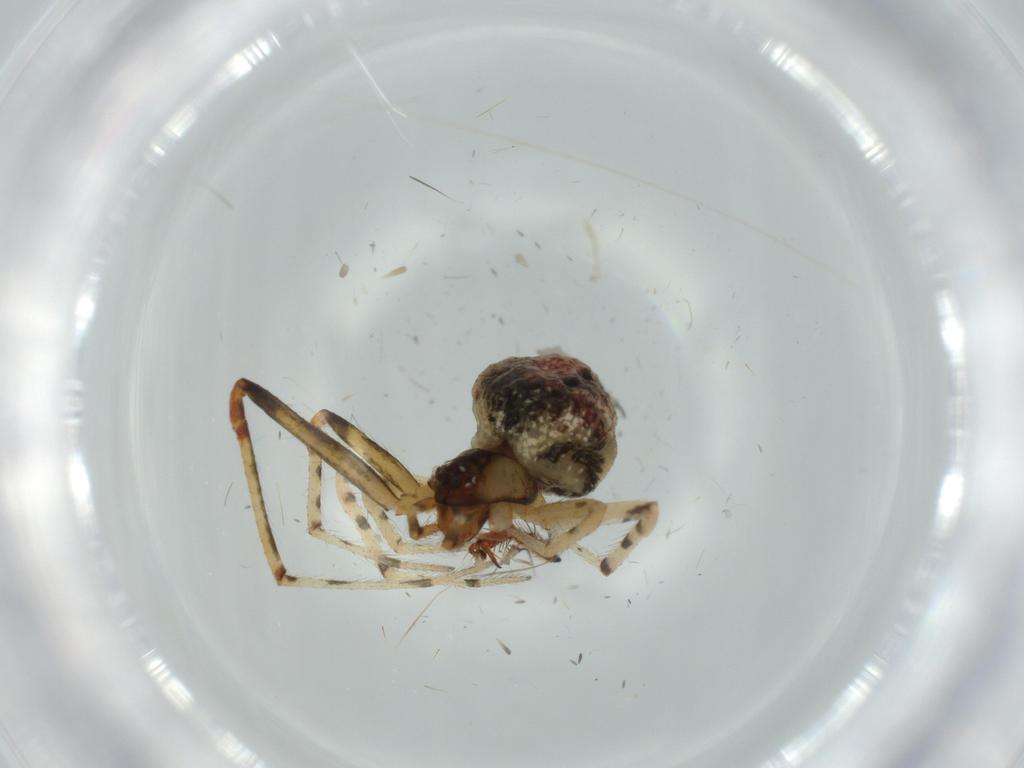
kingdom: Animalia
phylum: Arthropoda
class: Arachnida
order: Araneae
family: Theridiidae
